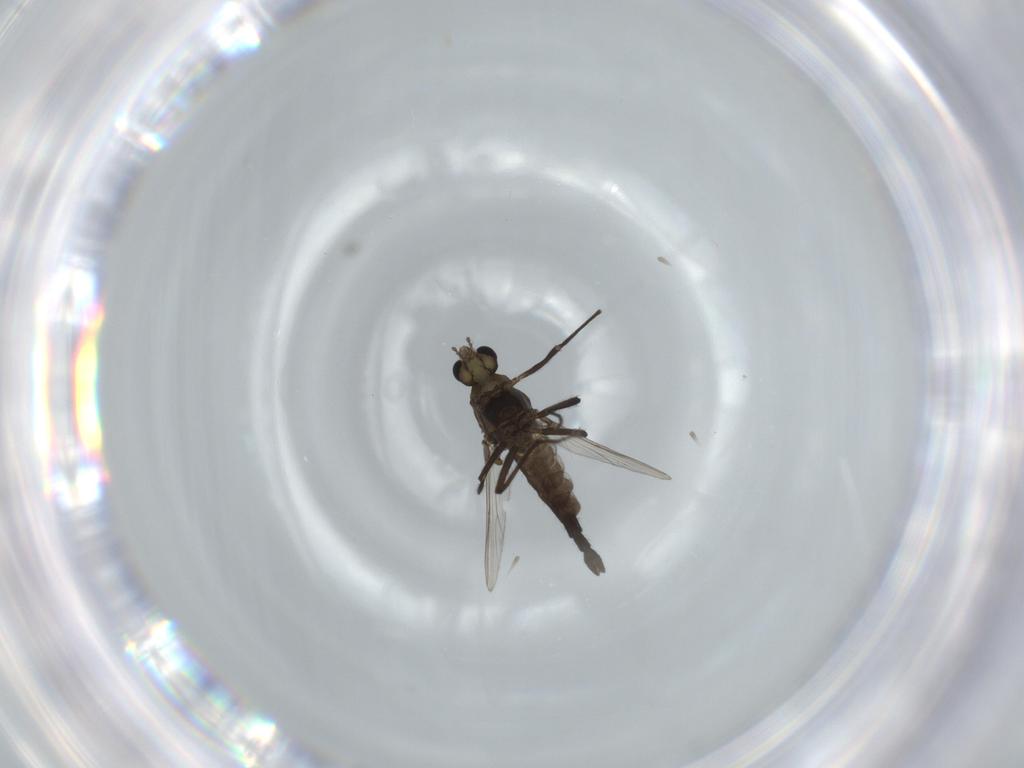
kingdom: Animalia
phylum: Arthropoda
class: Insecta
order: Diptera
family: Chironomidae
